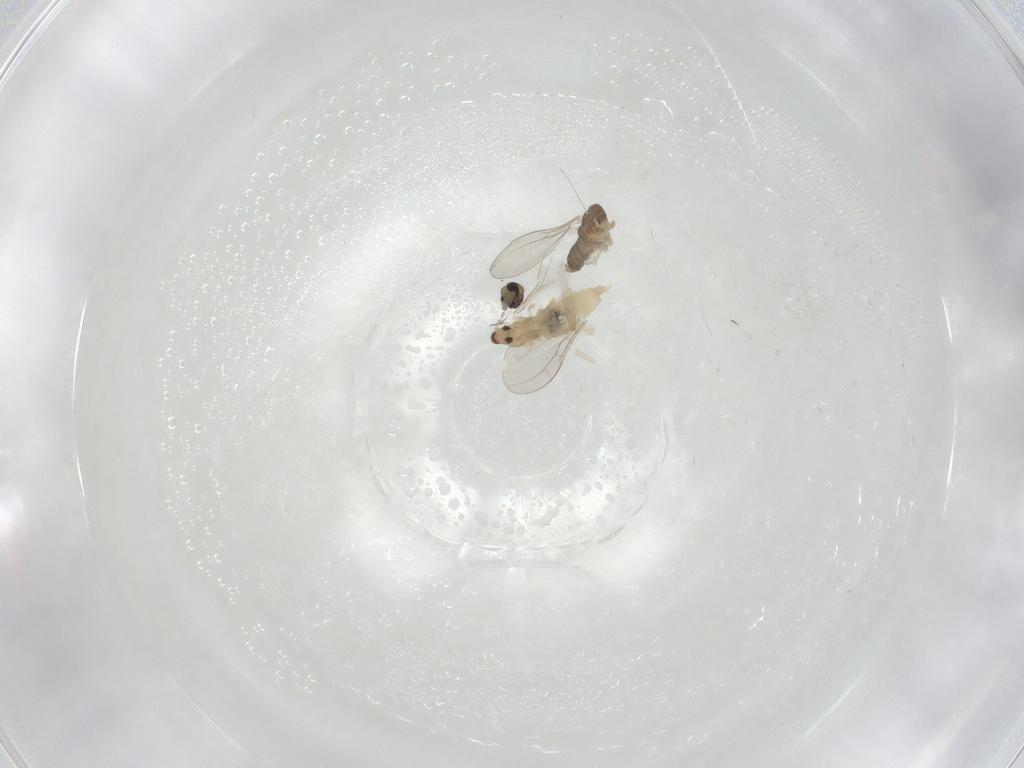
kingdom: Animalia
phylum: Arthropoda
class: Insecta
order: Diptera
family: Cecidomyiidae
